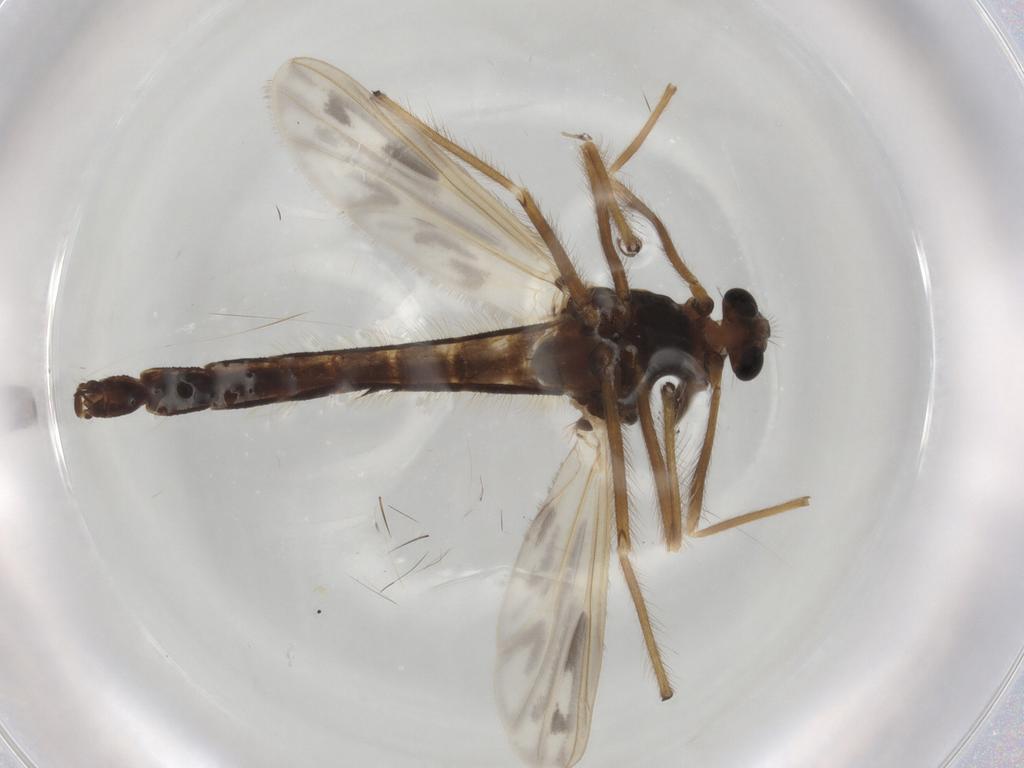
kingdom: Animalia
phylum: Arthropoda
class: Insecta
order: Diptera
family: Chironomidae
